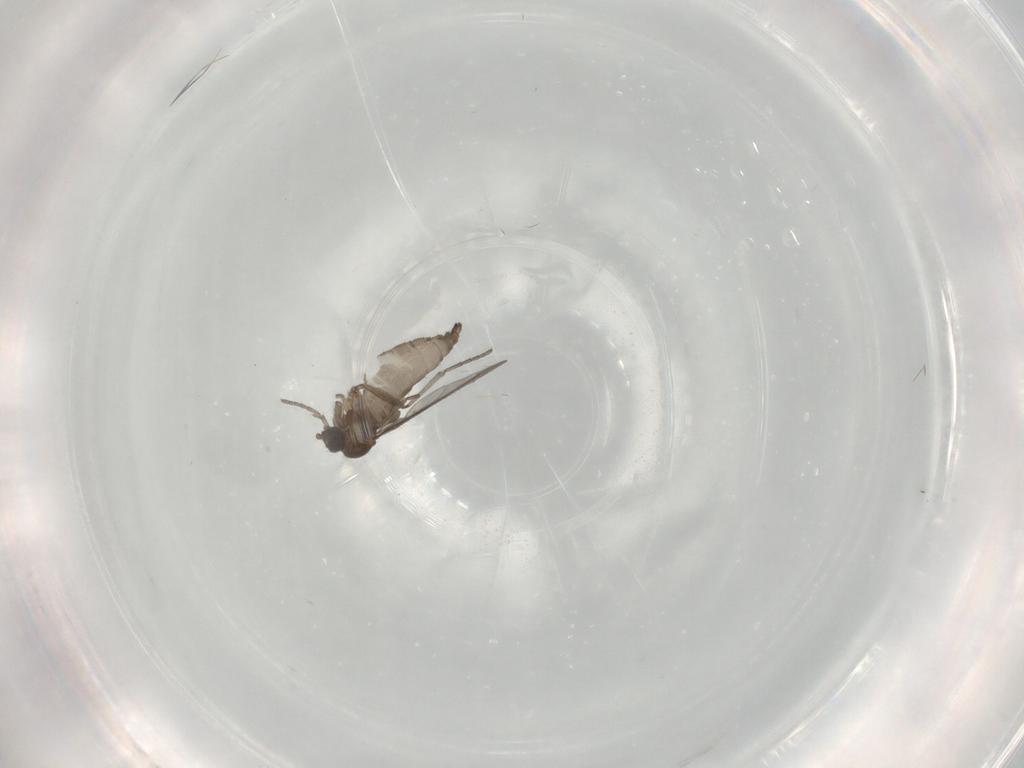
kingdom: Animalia
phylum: Arthropoda
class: Insecta
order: Diptera
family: Sciaridae
